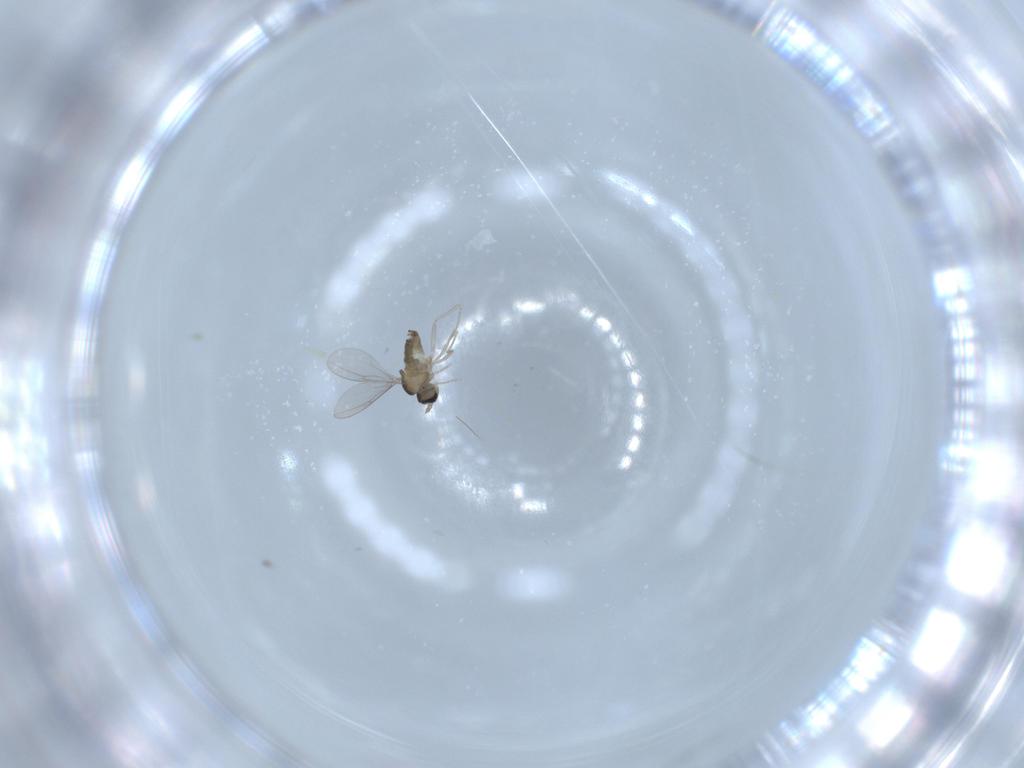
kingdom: Animalia
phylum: Arthropoda
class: Insecta
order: Diptera
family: Cecidomyiidae
